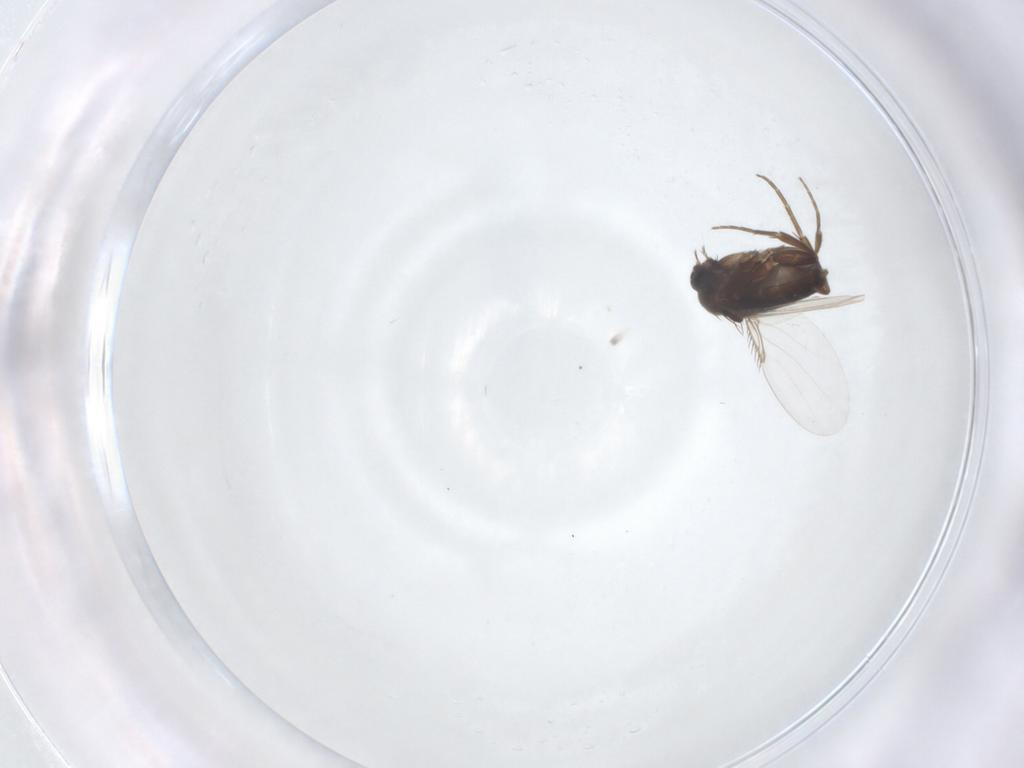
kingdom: Animalia
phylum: Arthropoda
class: Insecta
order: Diptera
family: Phoridae
